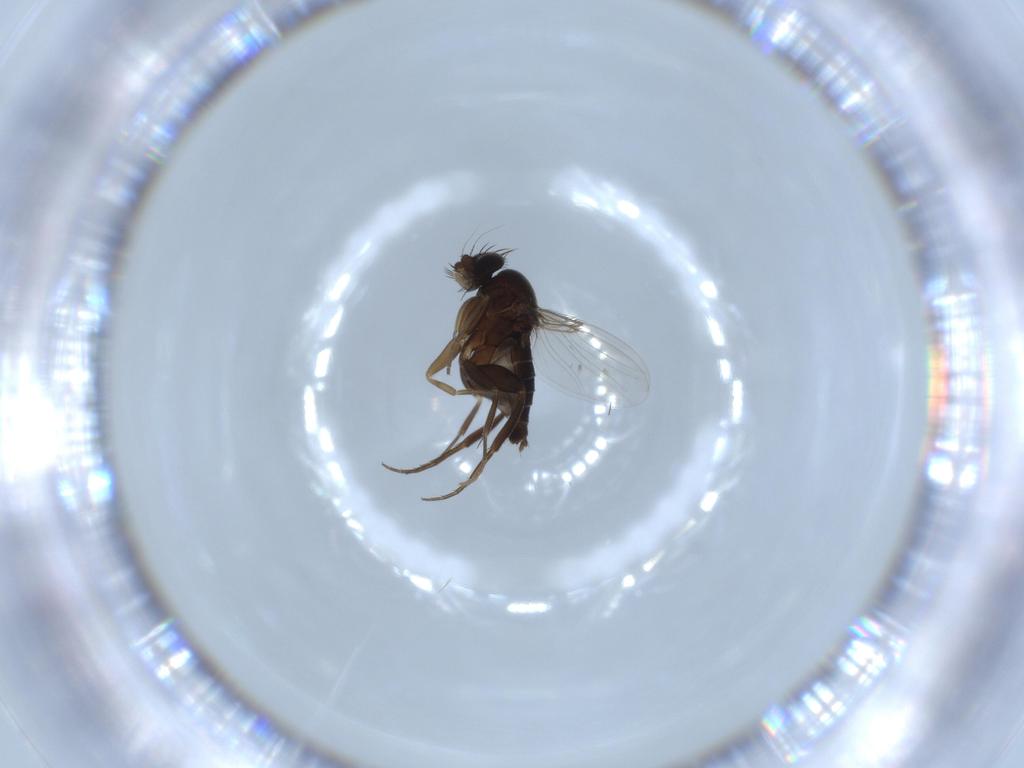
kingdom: Animalia
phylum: Arthropoda
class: Insecta
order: Diptera
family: Phoridae
